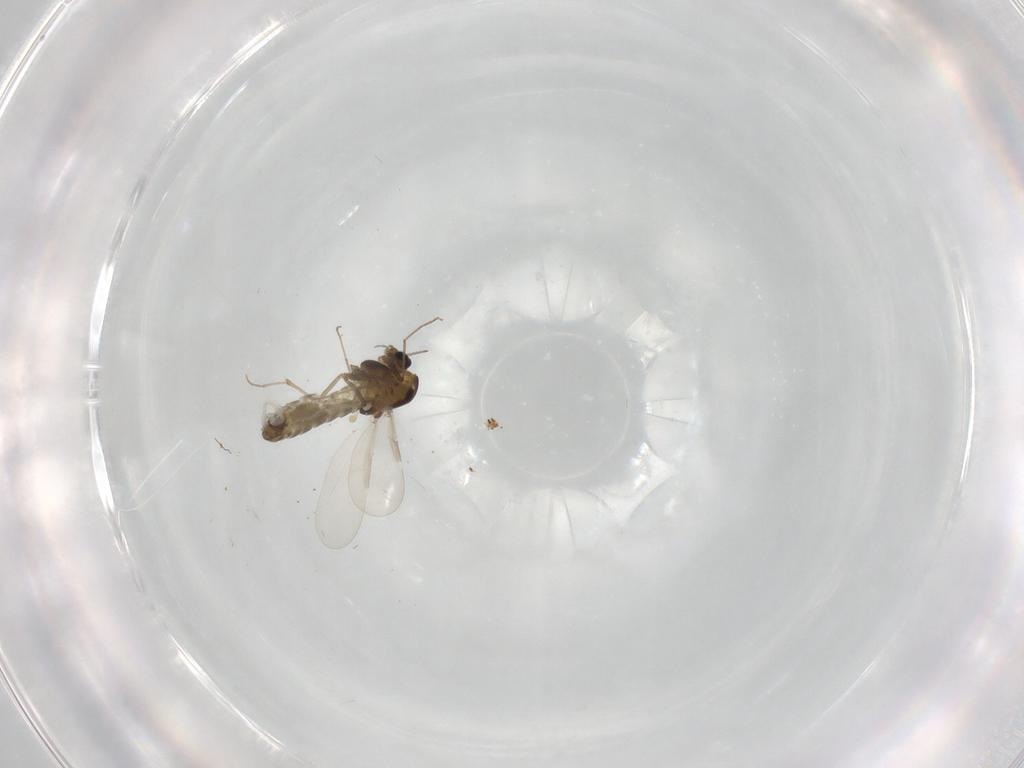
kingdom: Animalia
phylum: Arthropoda
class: Insecta
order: Diptera
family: Chironomidae
